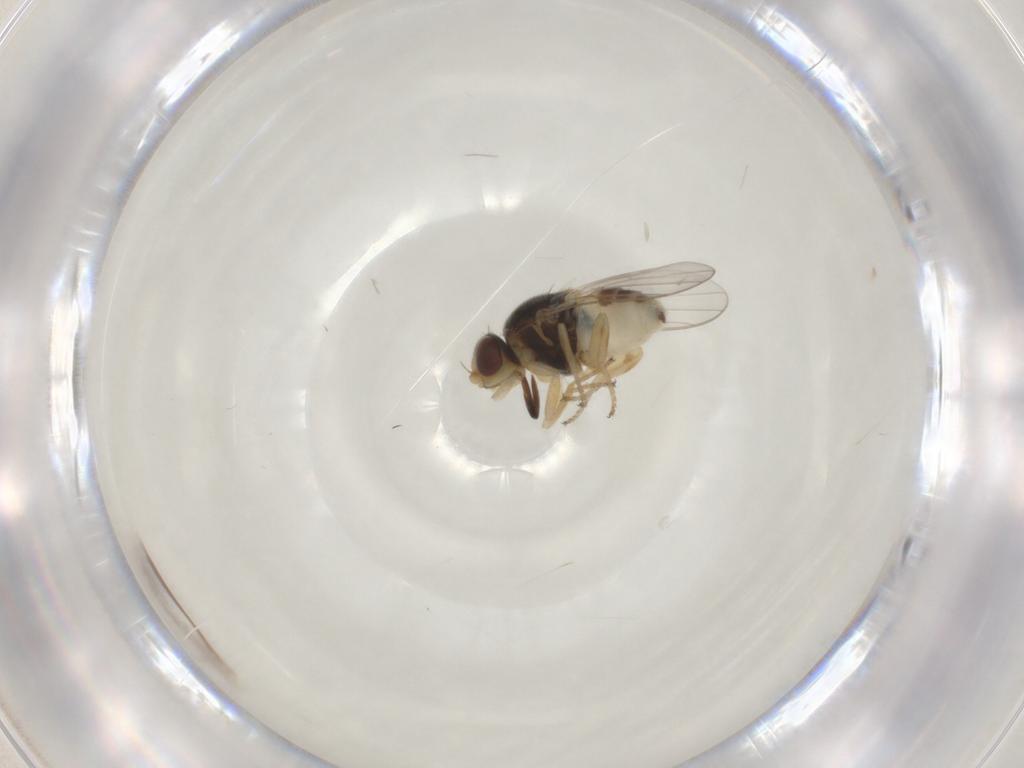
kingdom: Animalia
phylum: Arthropoda
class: Insecta
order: Diptera
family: Chloropidae
